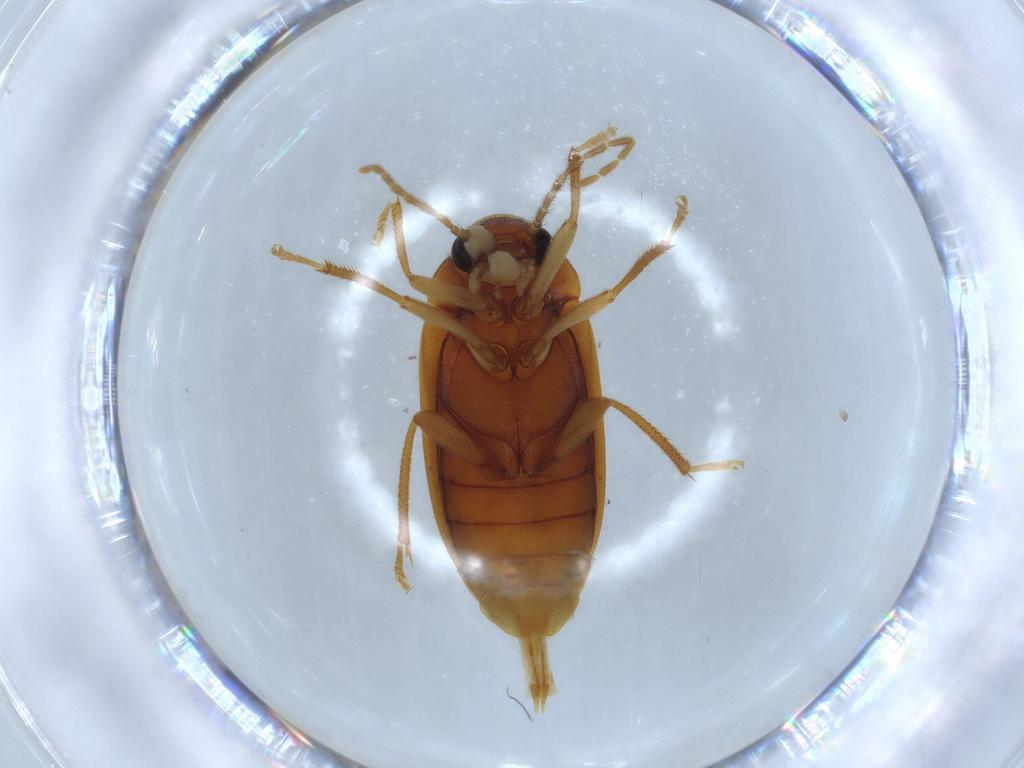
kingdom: Animalia
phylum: Arthropoda
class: Insecta
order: Coleoptera
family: Ptilodactylidae
